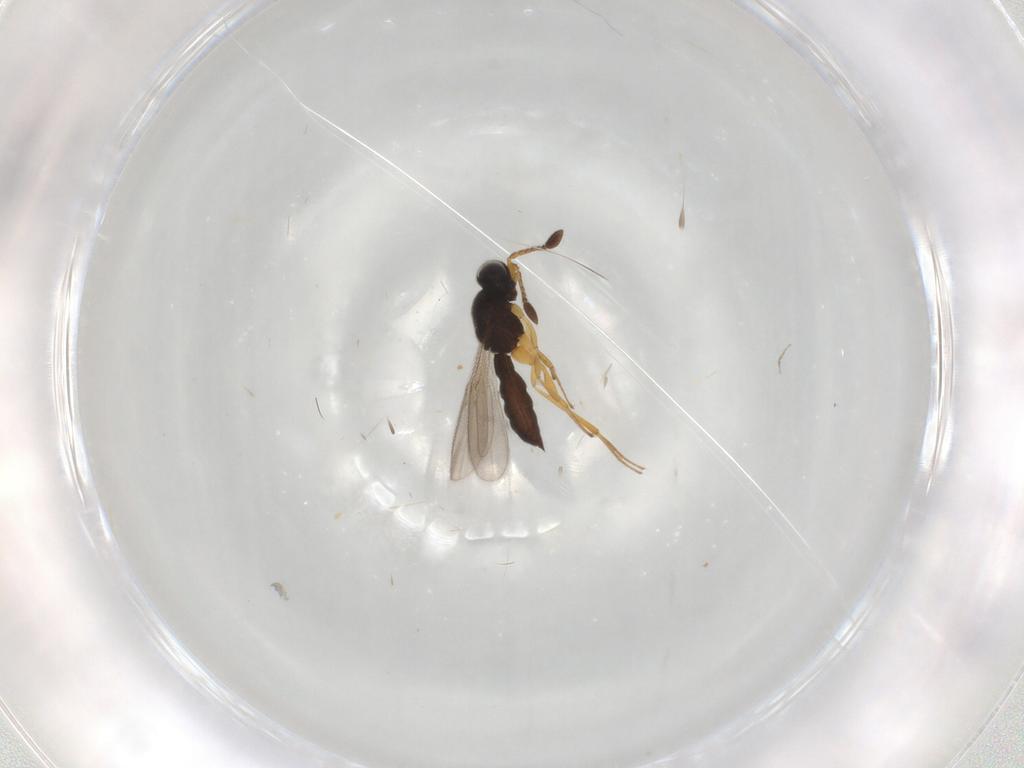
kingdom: Animalia
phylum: Arthropoda
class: Insecta
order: Hymenoptera
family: Scelionidae
